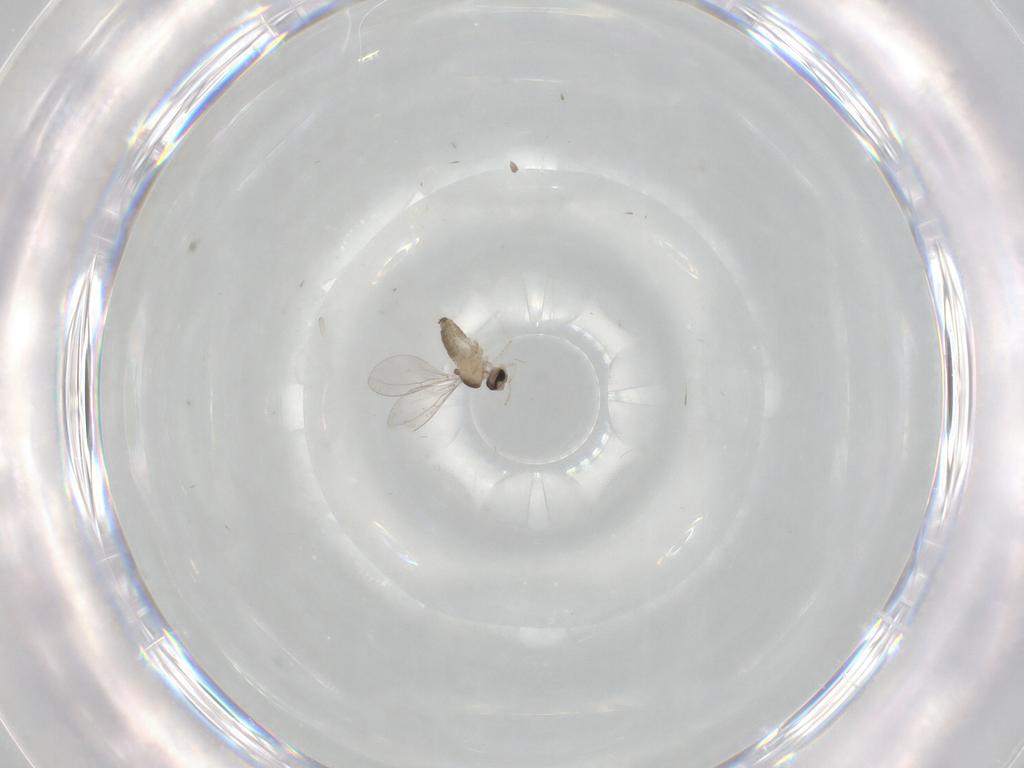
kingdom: Animalia
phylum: Arthropoda
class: Insecta
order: Diptera
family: Cecidomyiidae
